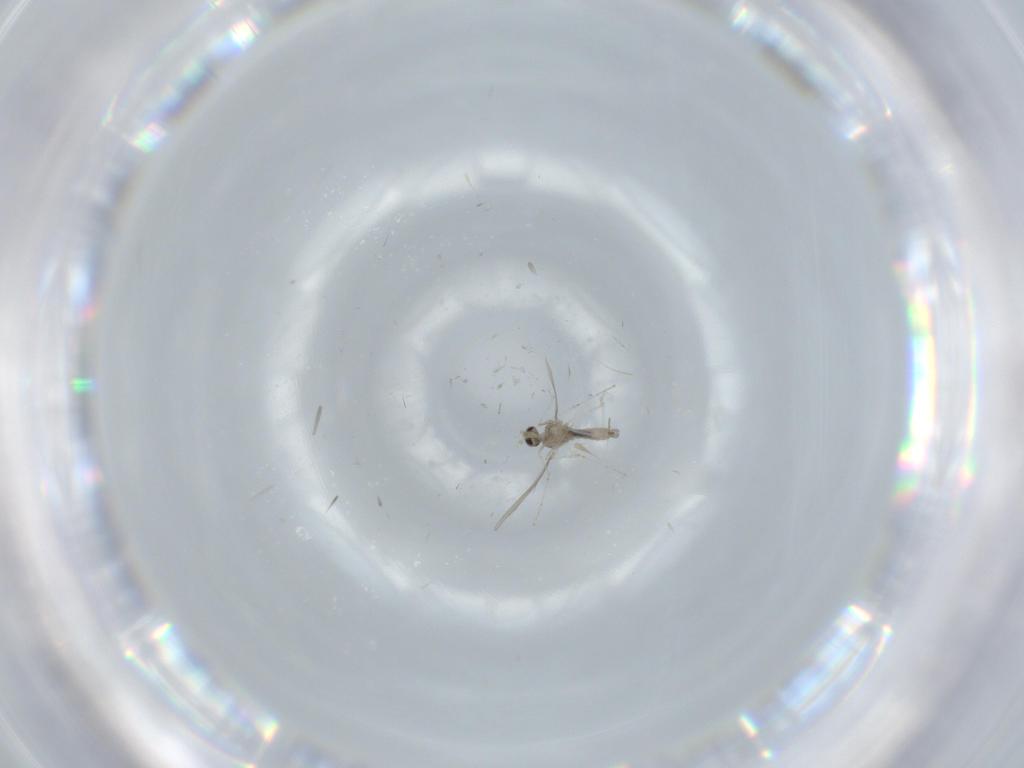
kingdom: Animalia
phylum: Arthropoda
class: Insecta
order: Diptera
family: Cecidomyiidae
